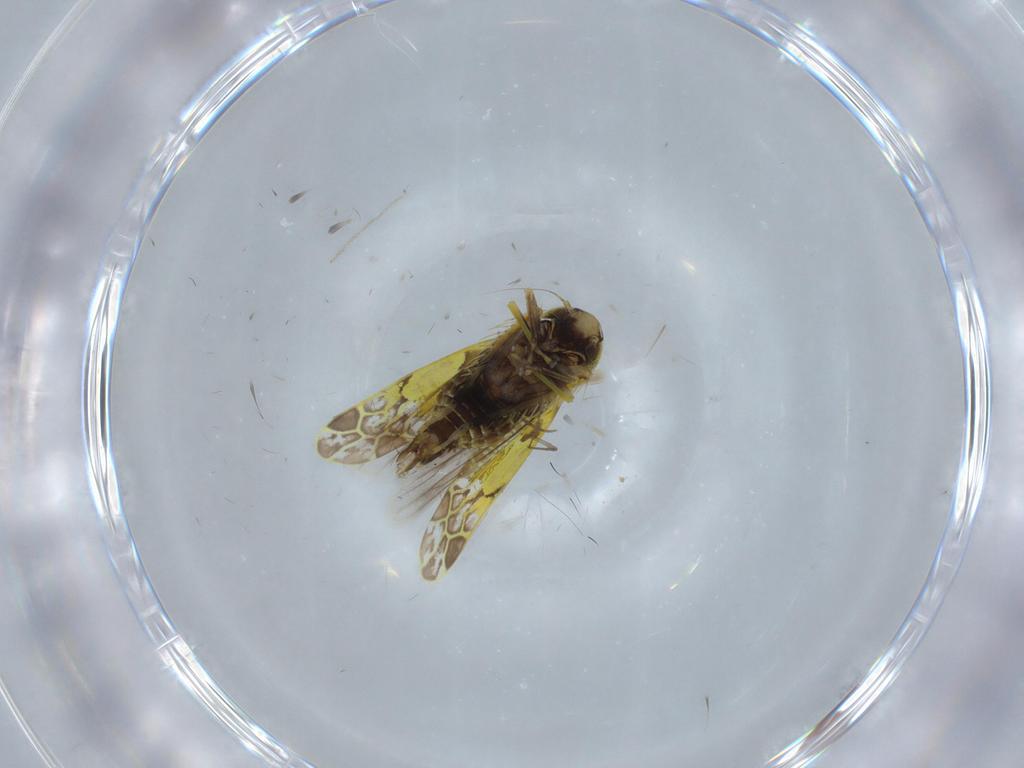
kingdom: Animalia
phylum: Arthropoda
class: Insecta
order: Hemiptera
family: Cicadellidae
